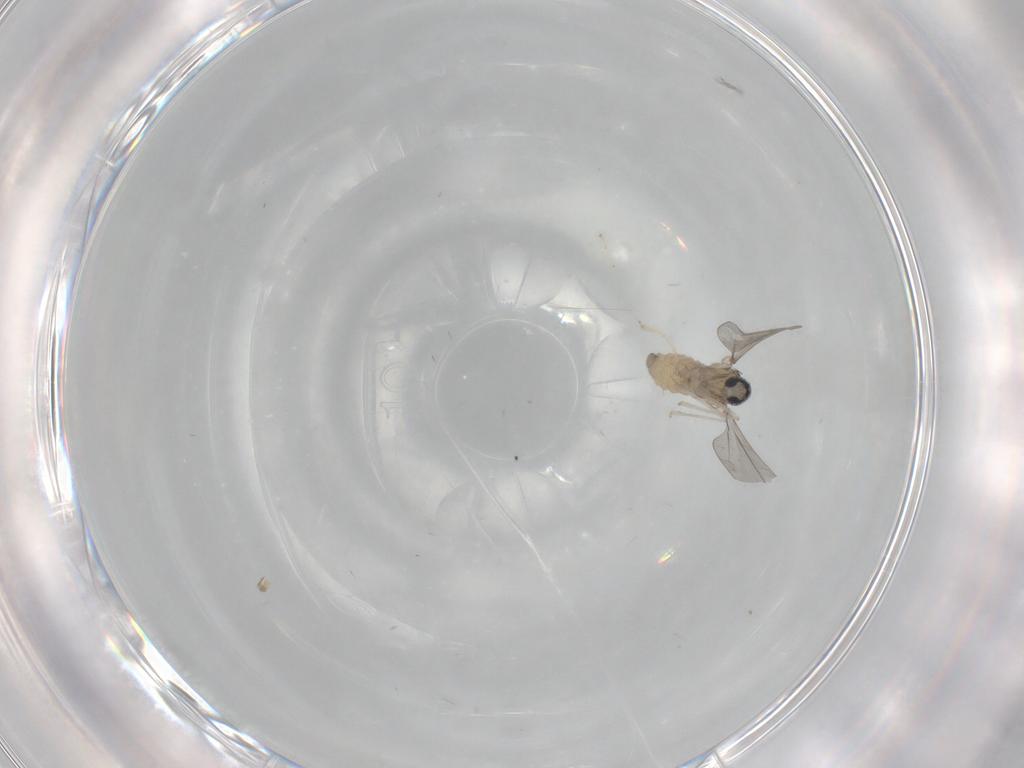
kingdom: Animalia
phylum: Arthropoda
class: Insecta
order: Diptera
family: Cecidomyiidae
